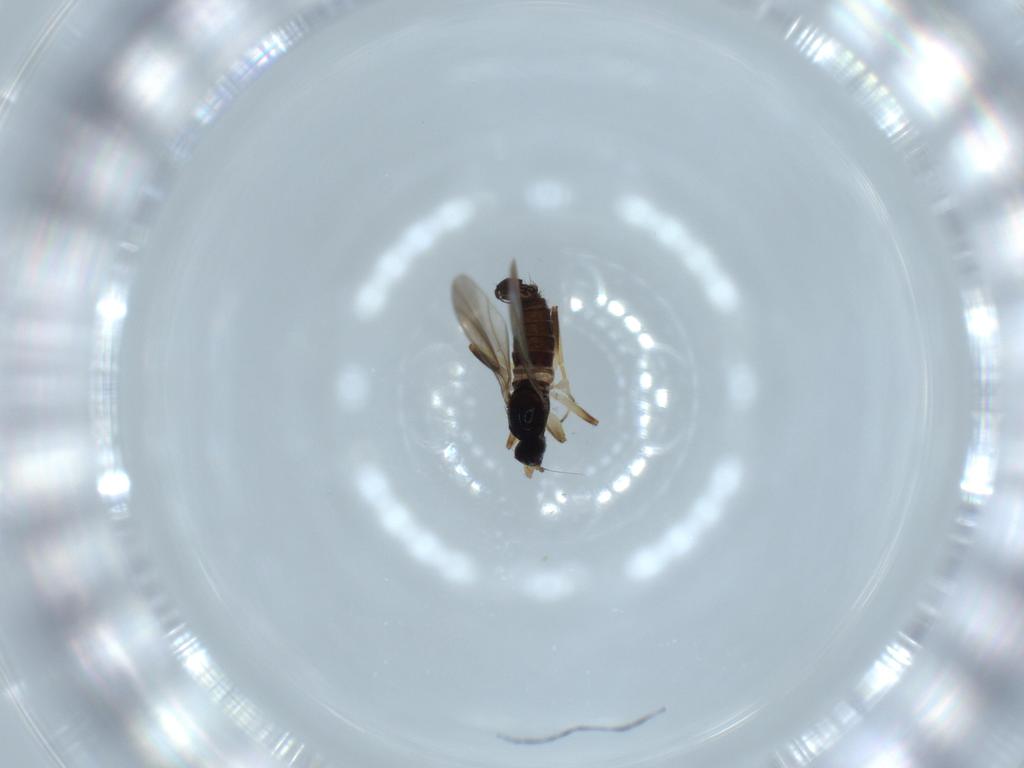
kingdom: Animalia
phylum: Arthropoda
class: Insecta
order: Diptera
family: Hybotidae
